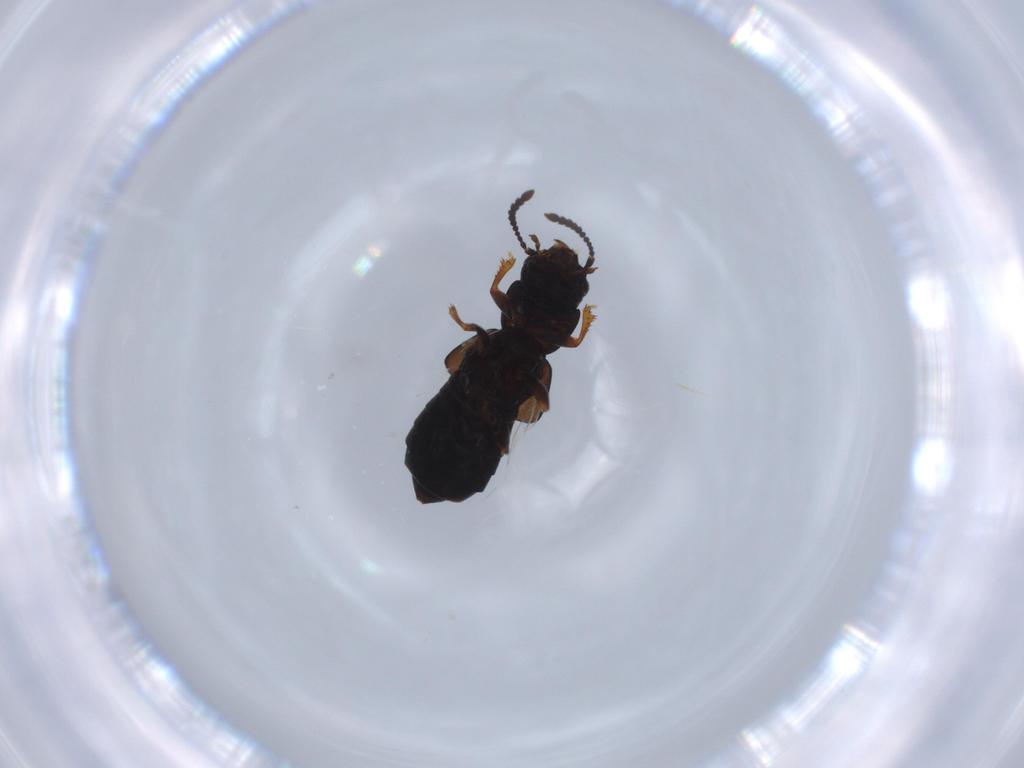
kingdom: Animalia
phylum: Arthropoda
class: Insecta
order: Coleoptera
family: Staphylinidae
